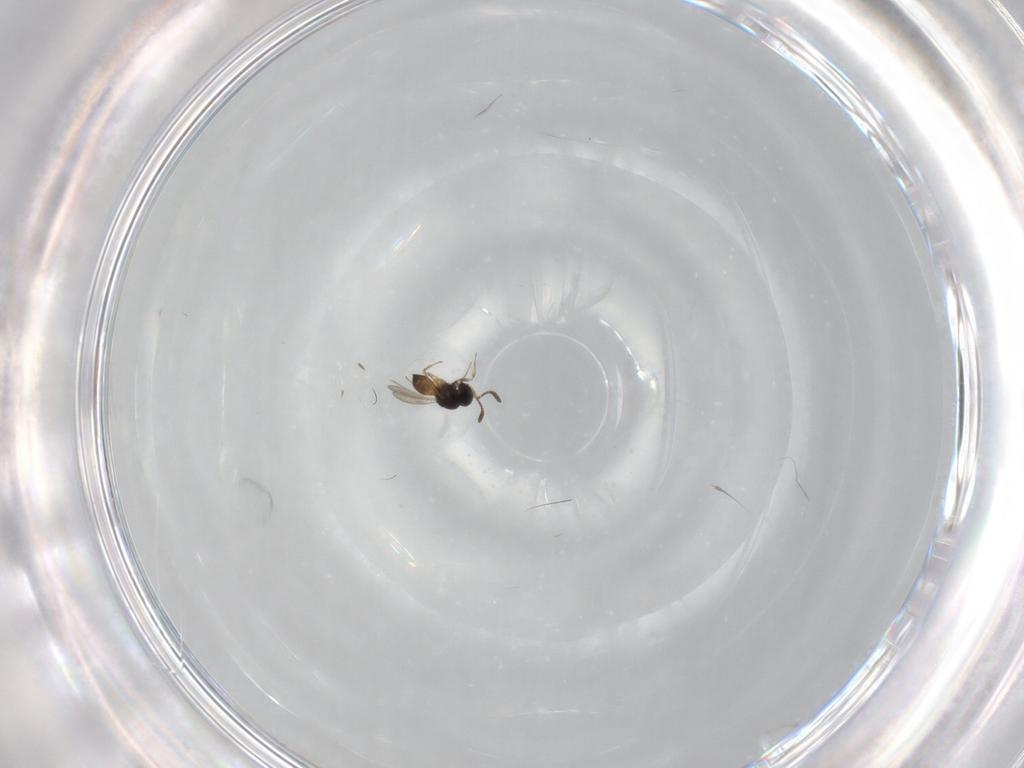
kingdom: Animalia
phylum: Arthropoda
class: Insecta
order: Hymenoptera
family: Scelionidae
